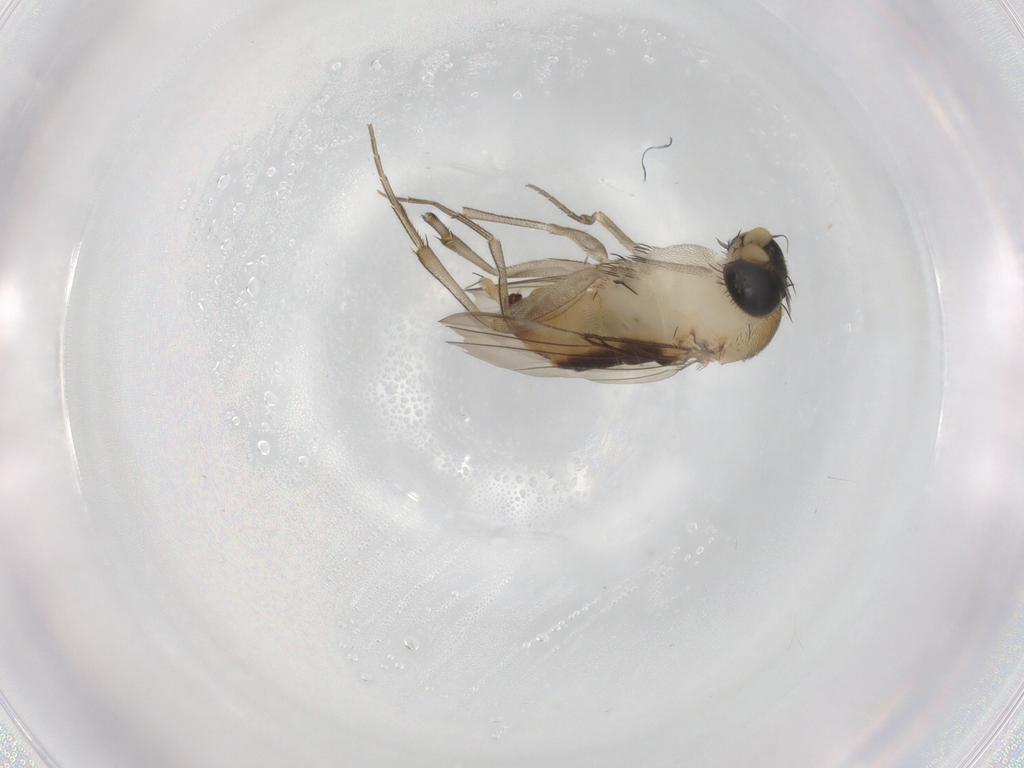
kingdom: Animalia
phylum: Arthropoda
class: Insecta
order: Diptera
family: Phoridae
